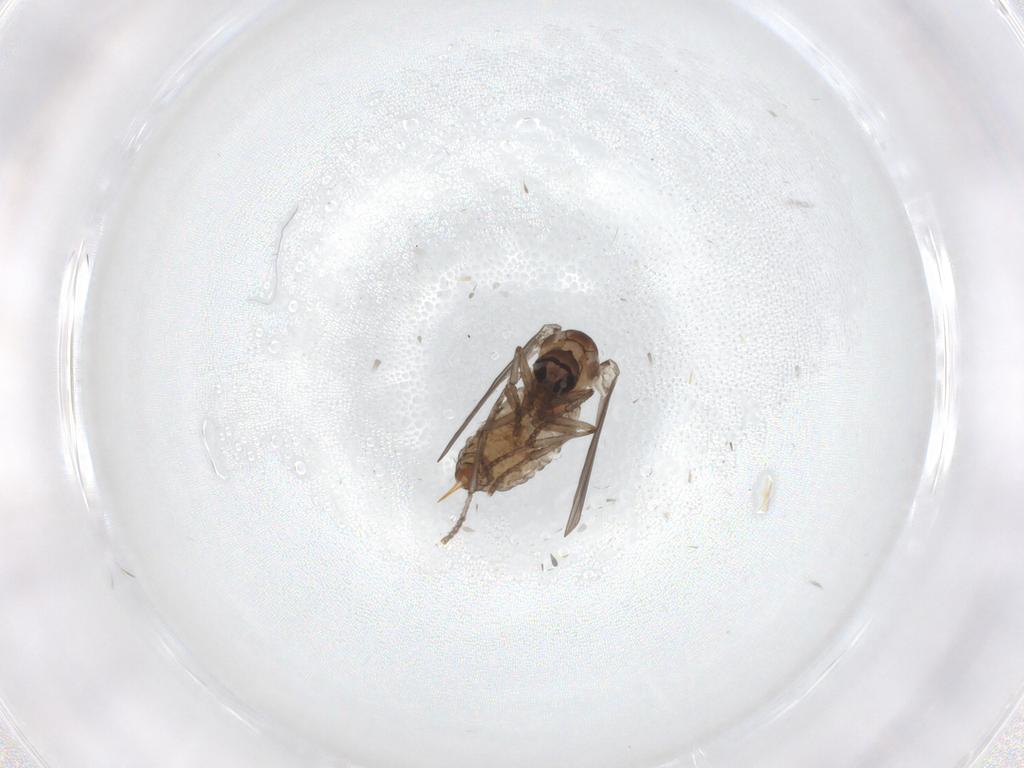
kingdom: Animalia
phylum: Arthropoda
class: Insecta
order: Diptera
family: Psychodidae
